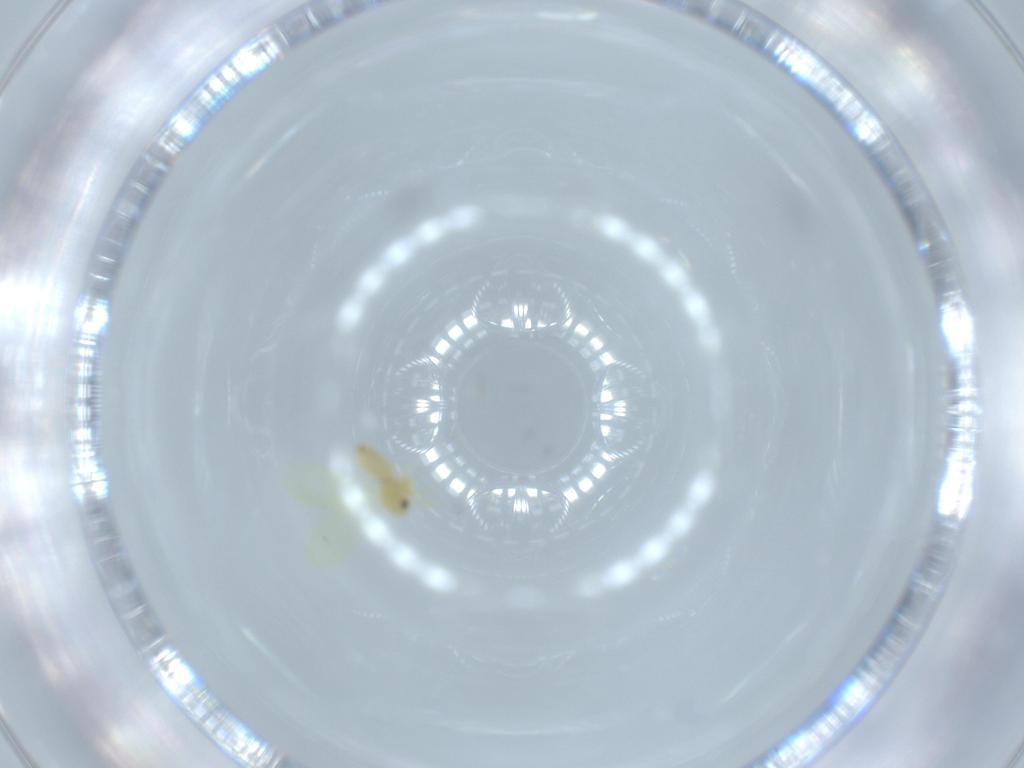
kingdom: Animalia
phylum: Arthropoda
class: Insecta
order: Hemiptera
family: Aleyrodidae
